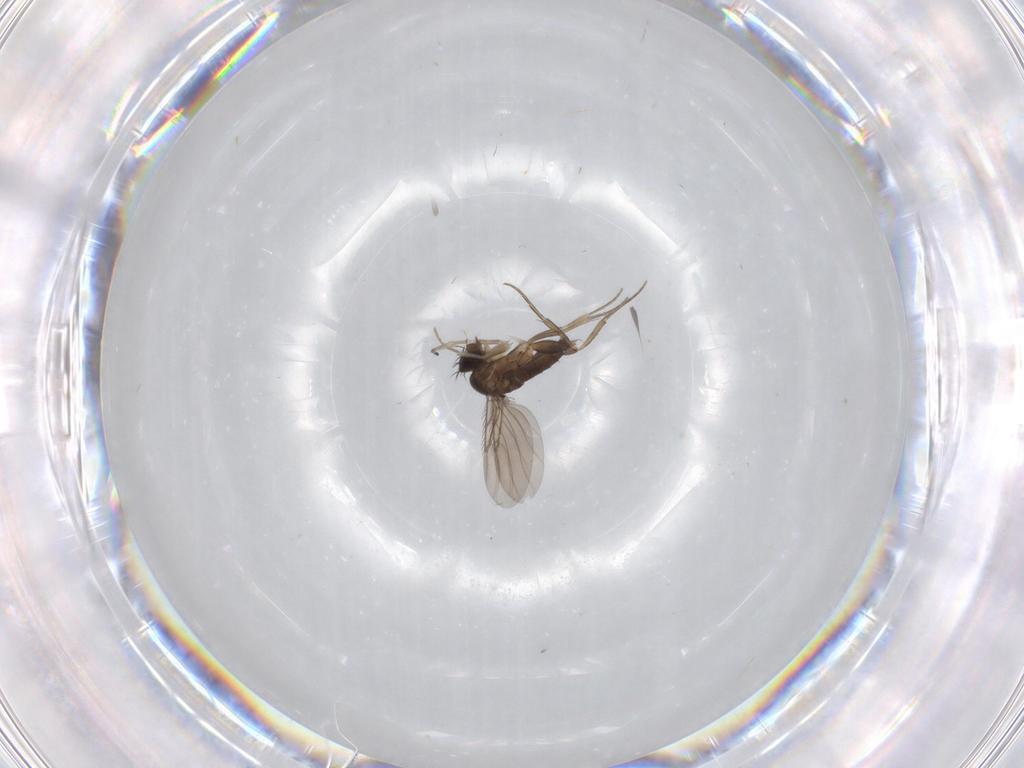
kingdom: Animalia
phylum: Arthropoda
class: Insecta
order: Diptera
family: Phoridae
